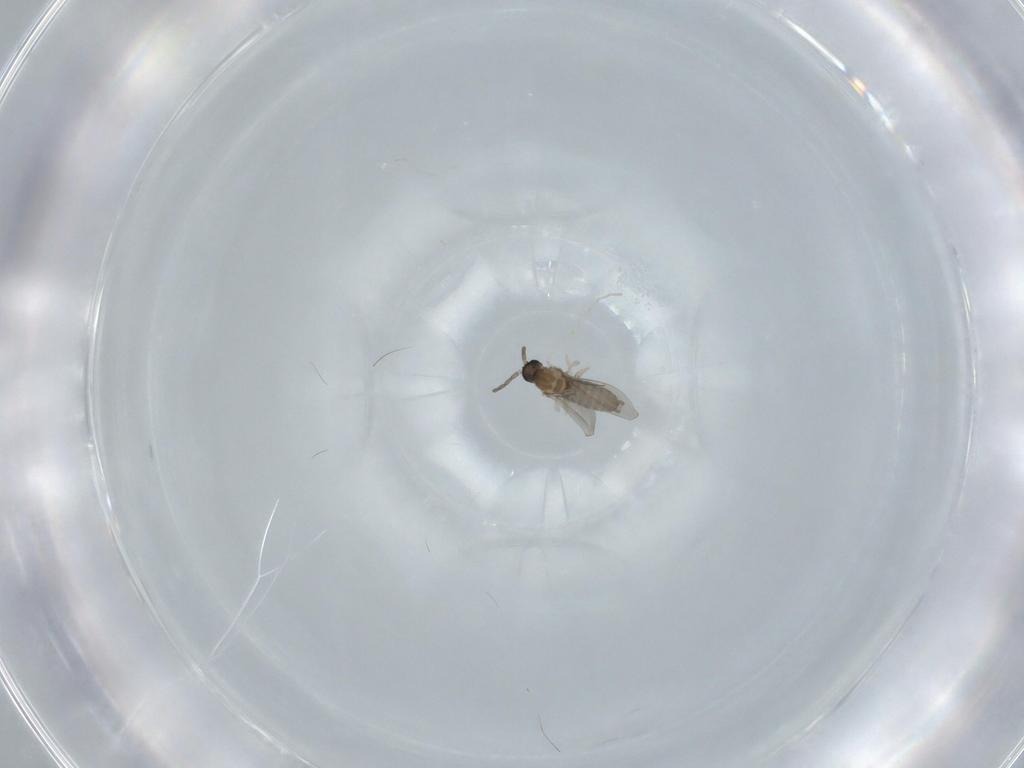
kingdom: Animalia
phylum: Arthropoda
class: Insecta
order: Diptera
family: Cecidomyiidae
